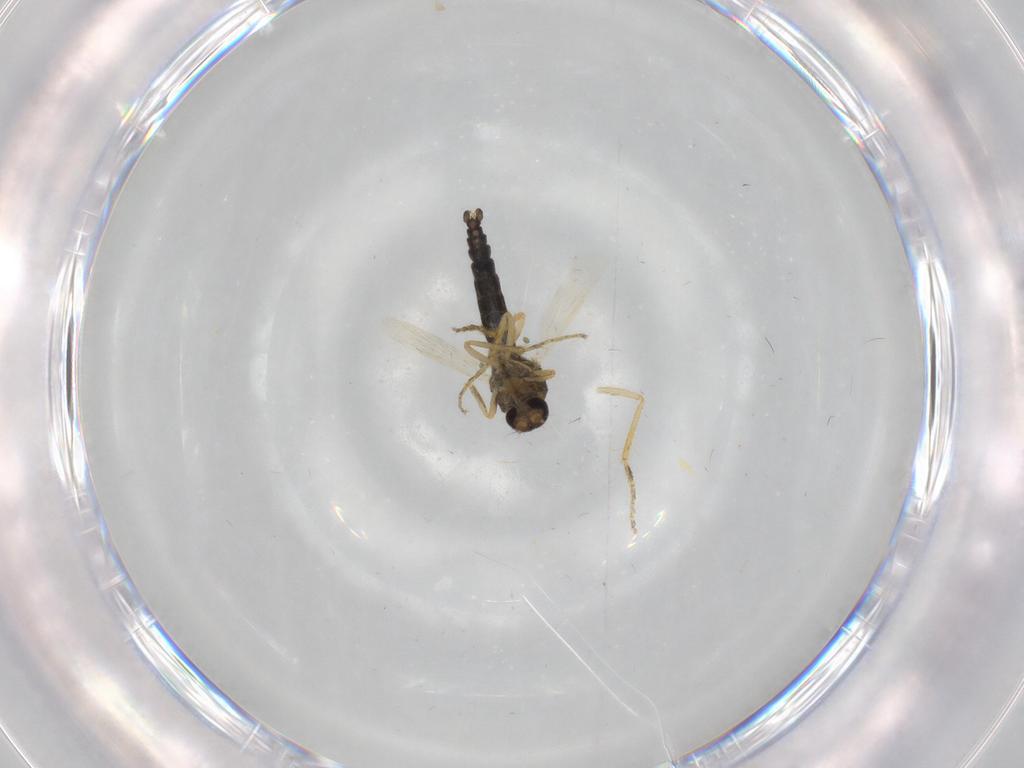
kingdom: Animalia
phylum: Arthropoda
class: Insecta
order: Diptera
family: Ceratopogonidae
